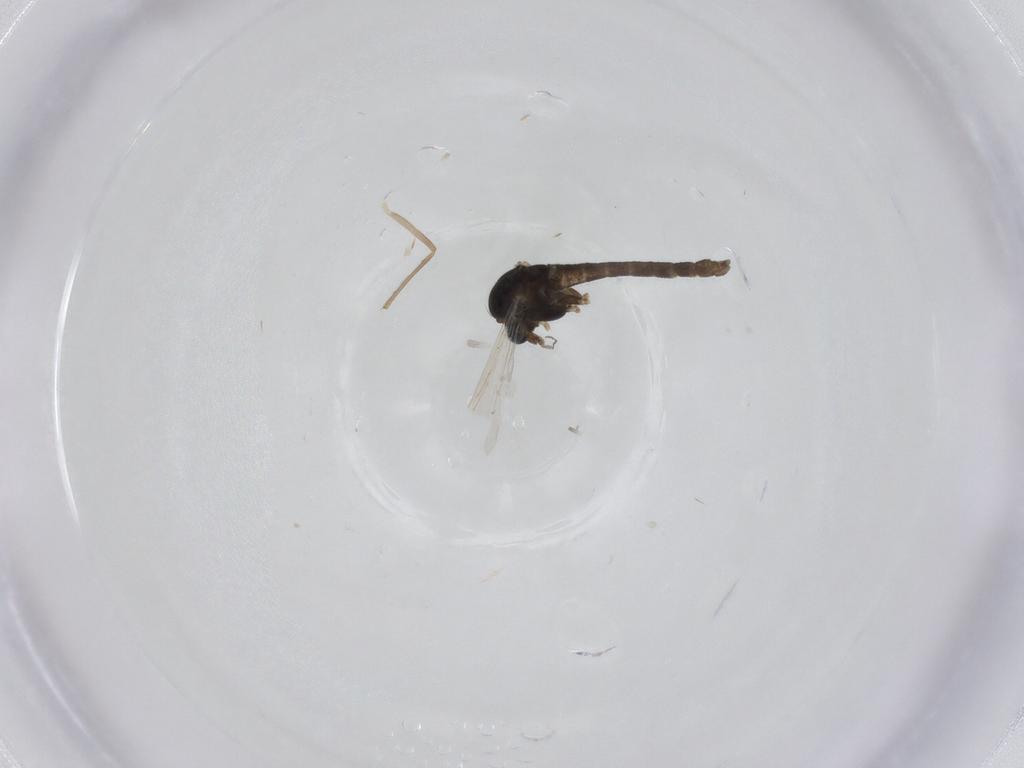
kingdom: Animalia
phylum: Arthropoda
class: Insecta
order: Diptera
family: Chironomidae
